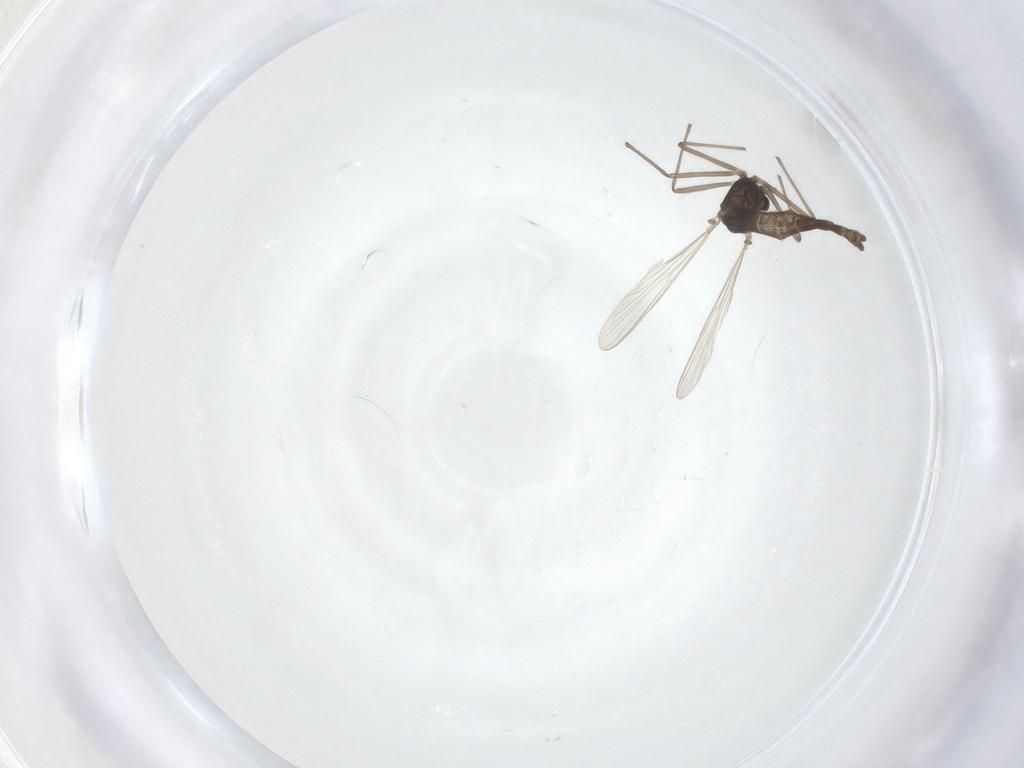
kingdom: Animalia
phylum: Arthropoda
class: Insecta
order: Diptera
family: Chironomidae
